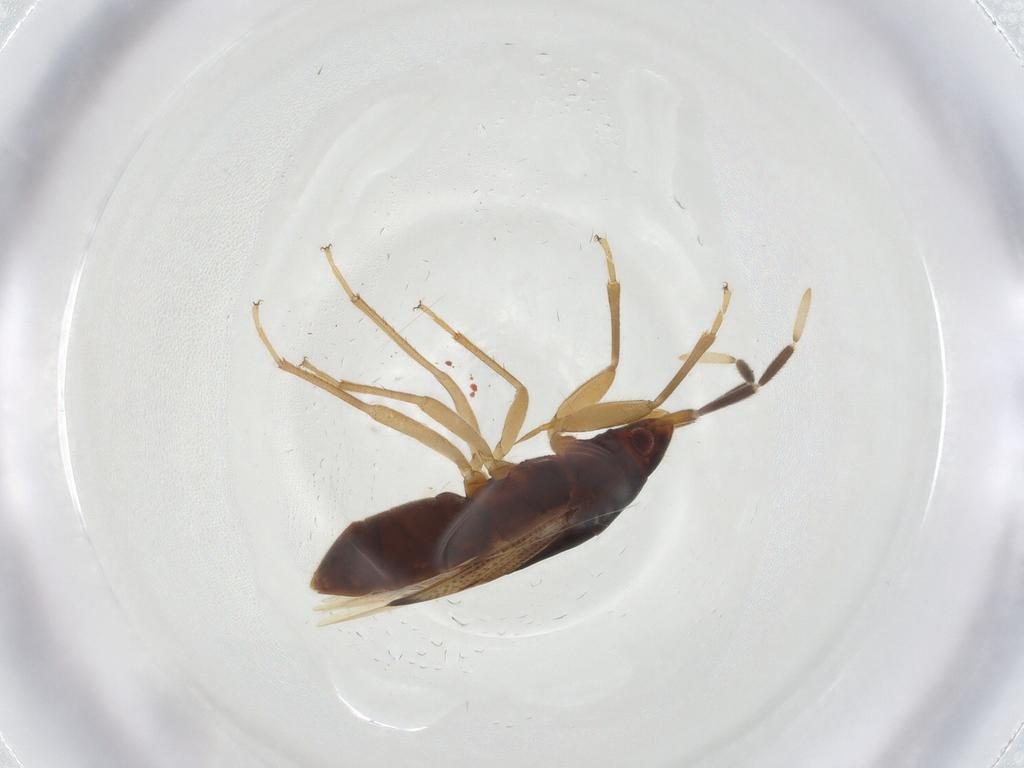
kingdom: Animalia
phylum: Arthropoda
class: Insecta
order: Hemiptera
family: Rhyparochromidae
